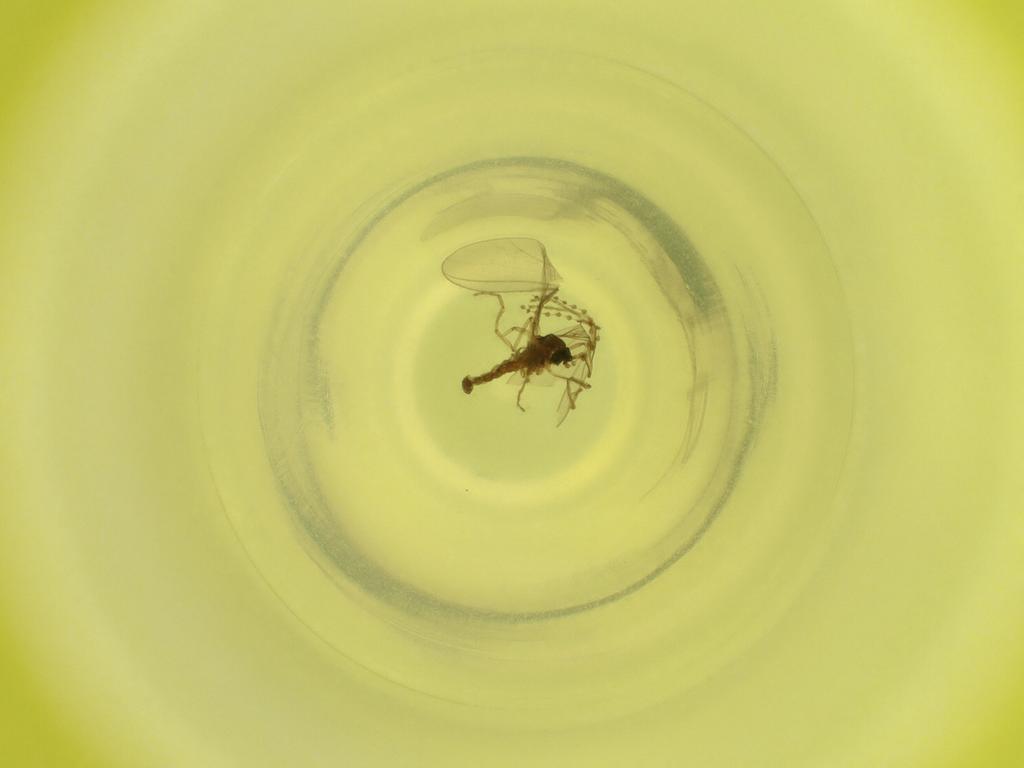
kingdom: Animalia
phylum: Arthropoda
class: Insecta
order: Diptera
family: Cecidomyiidae
